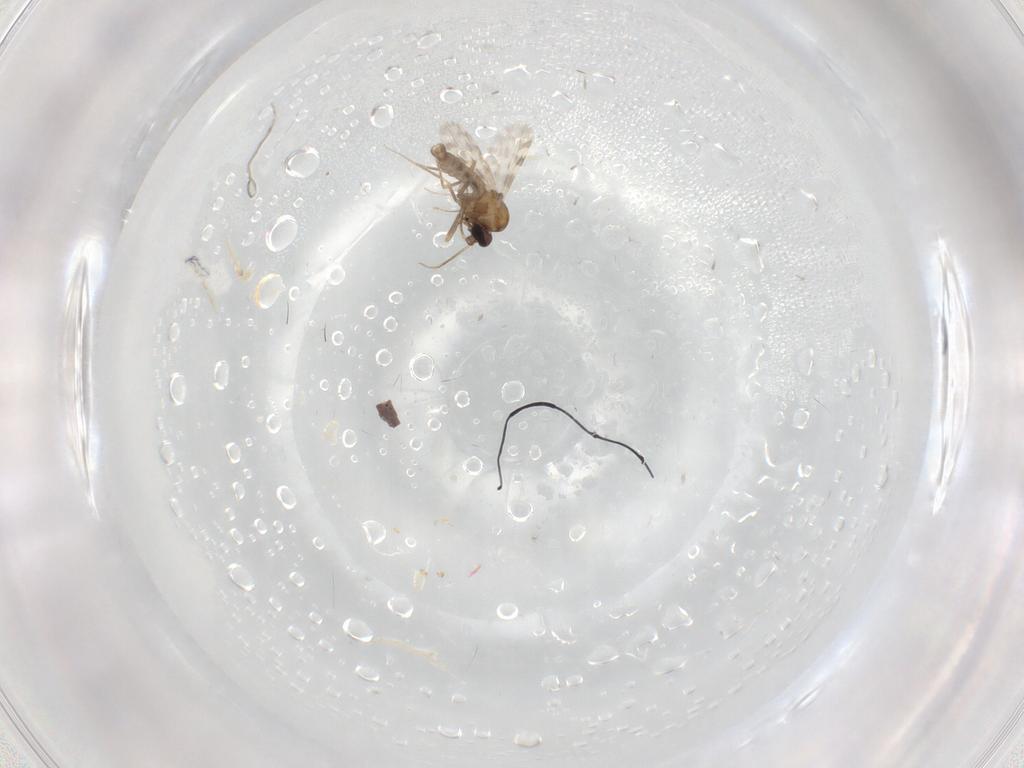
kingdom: Animalia
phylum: Arthropoda
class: Insecta
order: Diptera
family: Ceratopogonidae
